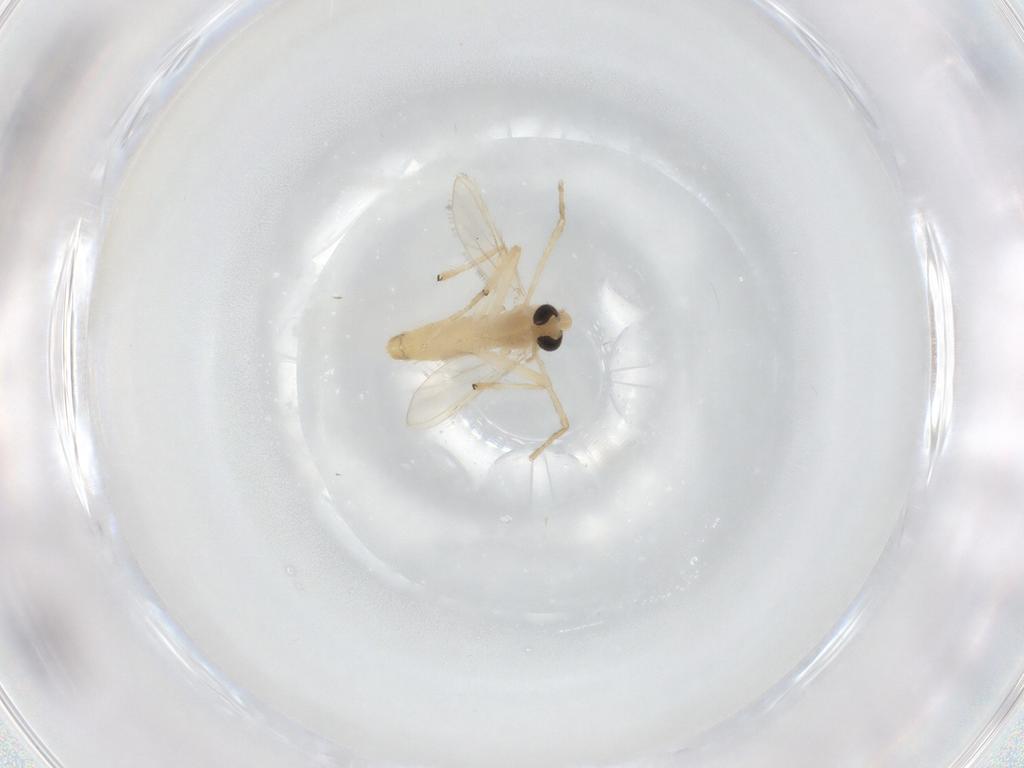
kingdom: Animalia
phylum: Arthropoda
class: Insecta
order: Diptera
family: Chironomidae
